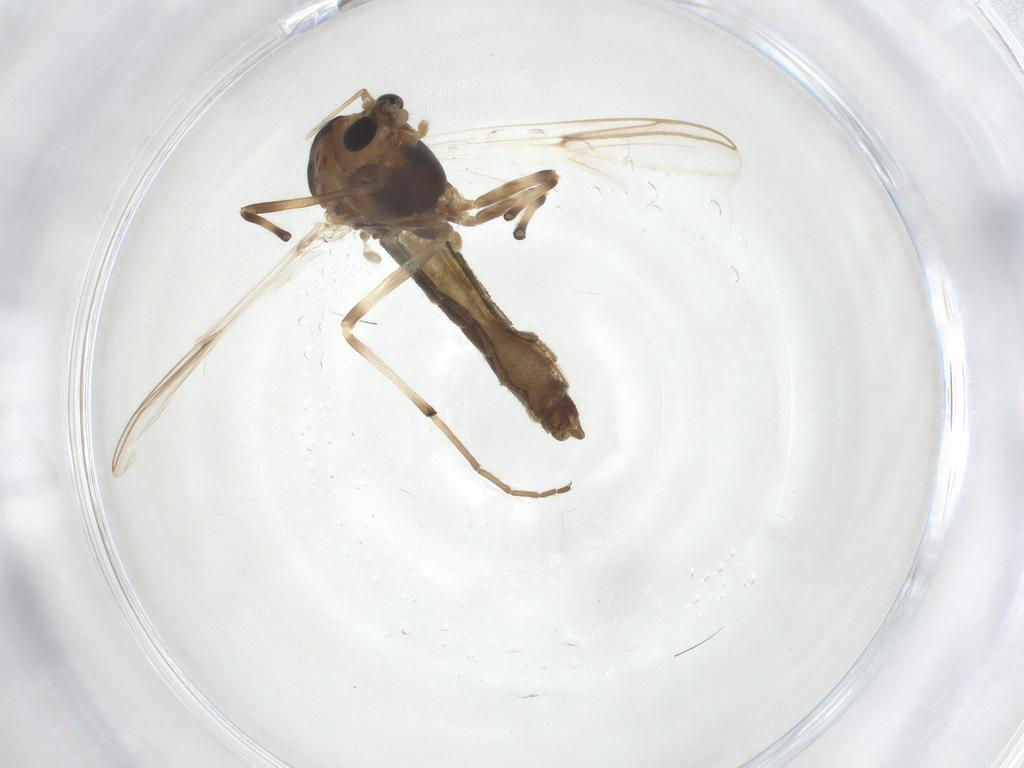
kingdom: Animalia
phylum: Arthropoda
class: Insecta
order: Diptera
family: Chironomidae
